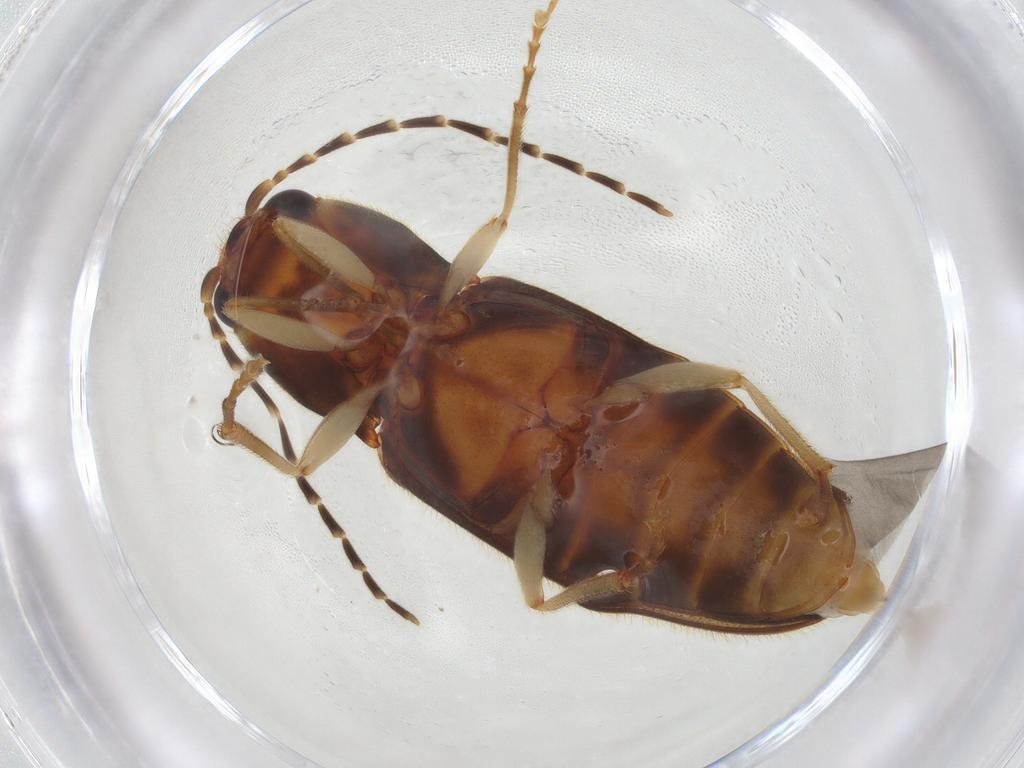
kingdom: Animalia
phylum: Arthropoda
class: Insecta
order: Coleoptera
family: Elateridae
